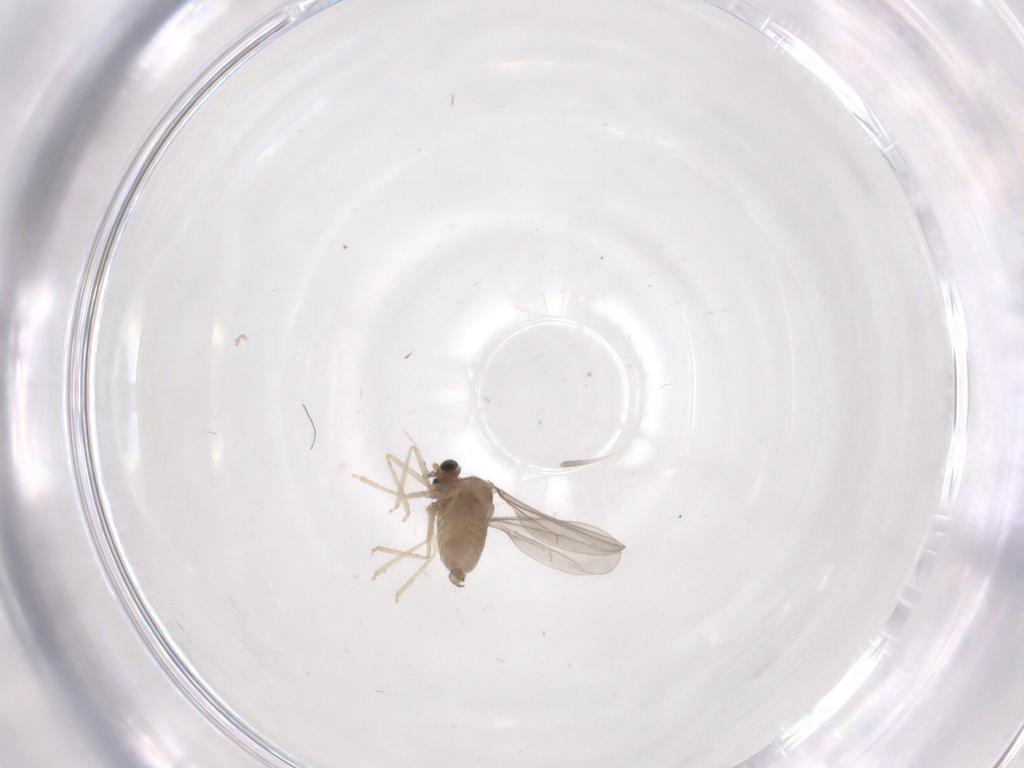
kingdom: Animalia
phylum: Arthropoda
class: Insecta
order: Diptera
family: Cecidomyiidae
